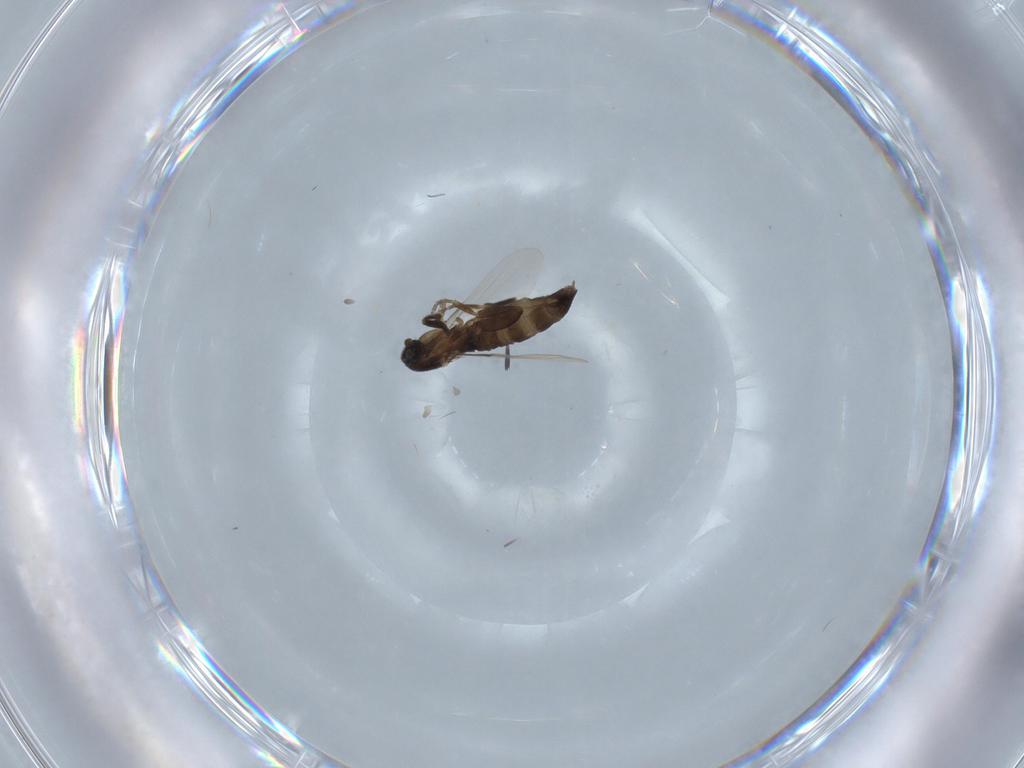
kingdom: Animalia
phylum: Arthropoda
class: Insecta
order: Diptera
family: Phoridae
